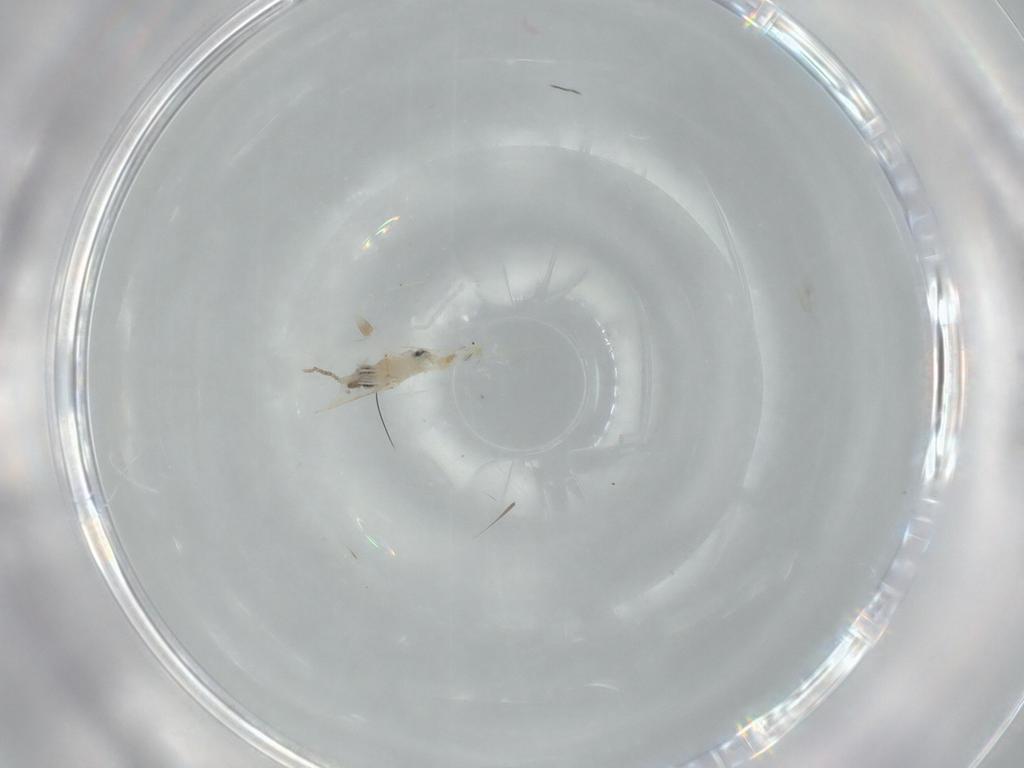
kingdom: Animalia
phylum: Arthropoda
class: Insecta
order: Diptera
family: Cecidomyiidae
